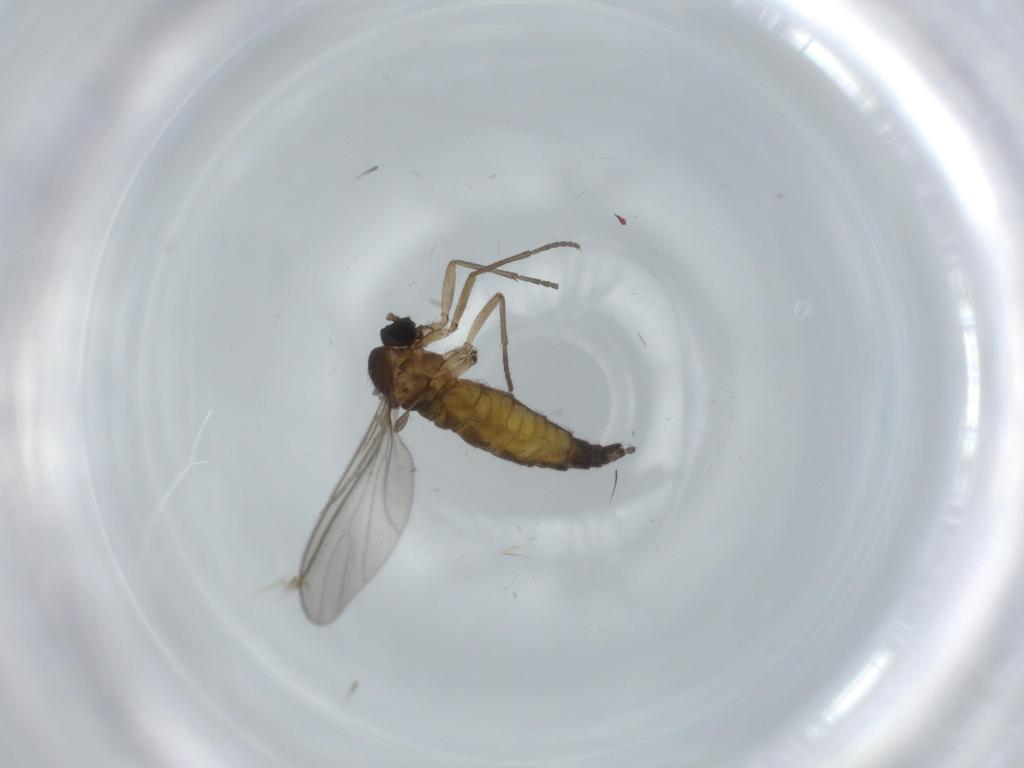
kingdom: Animalia
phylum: Arthropoda
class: Insecta
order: Diptera
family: Sciaridae
